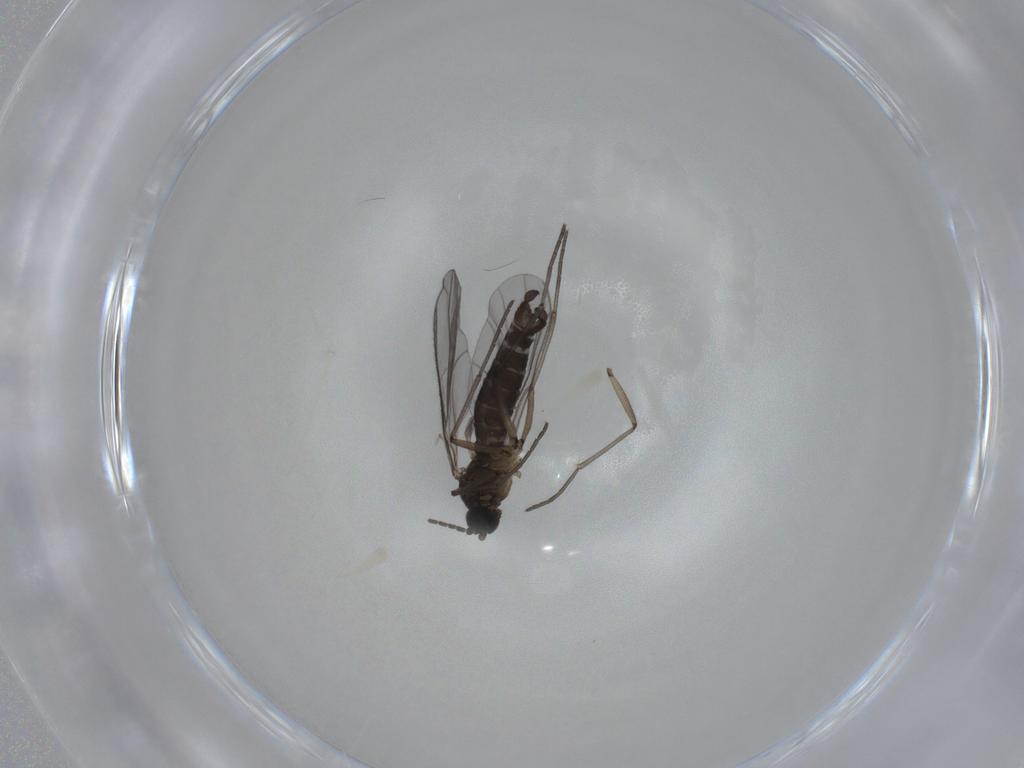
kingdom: Animalia
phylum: Arthropoda
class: Insecta
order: Diptera
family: Sciaridae
